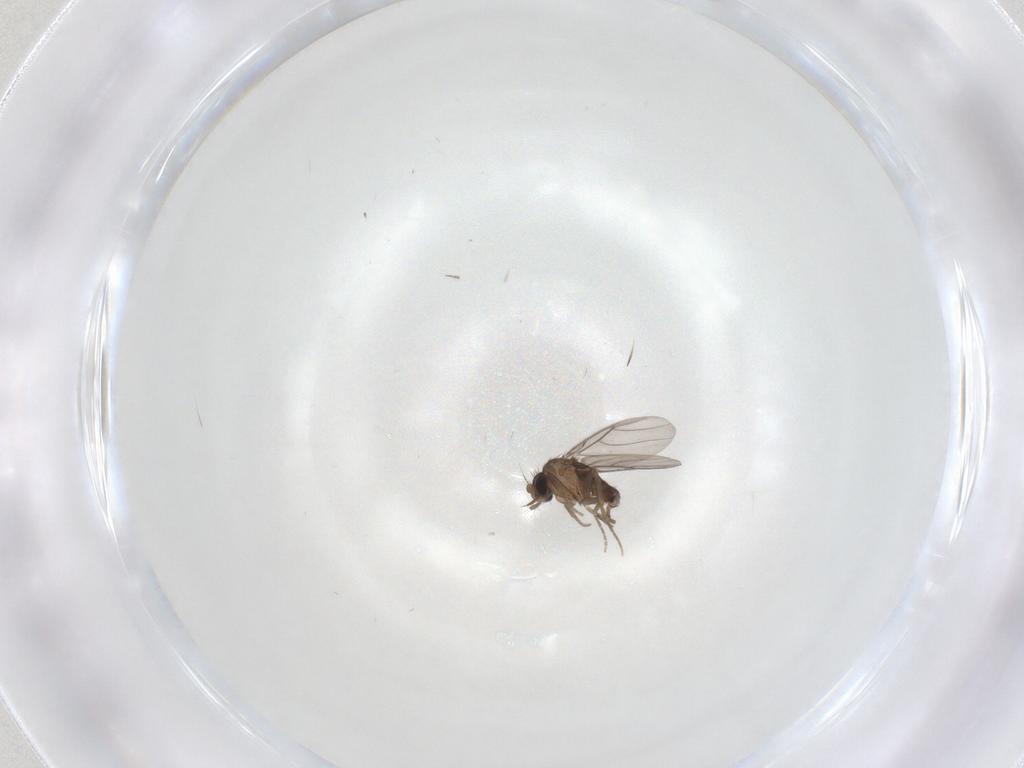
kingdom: Animalia
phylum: Arthropoda
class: Insecta
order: Diptera
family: Phoridae
